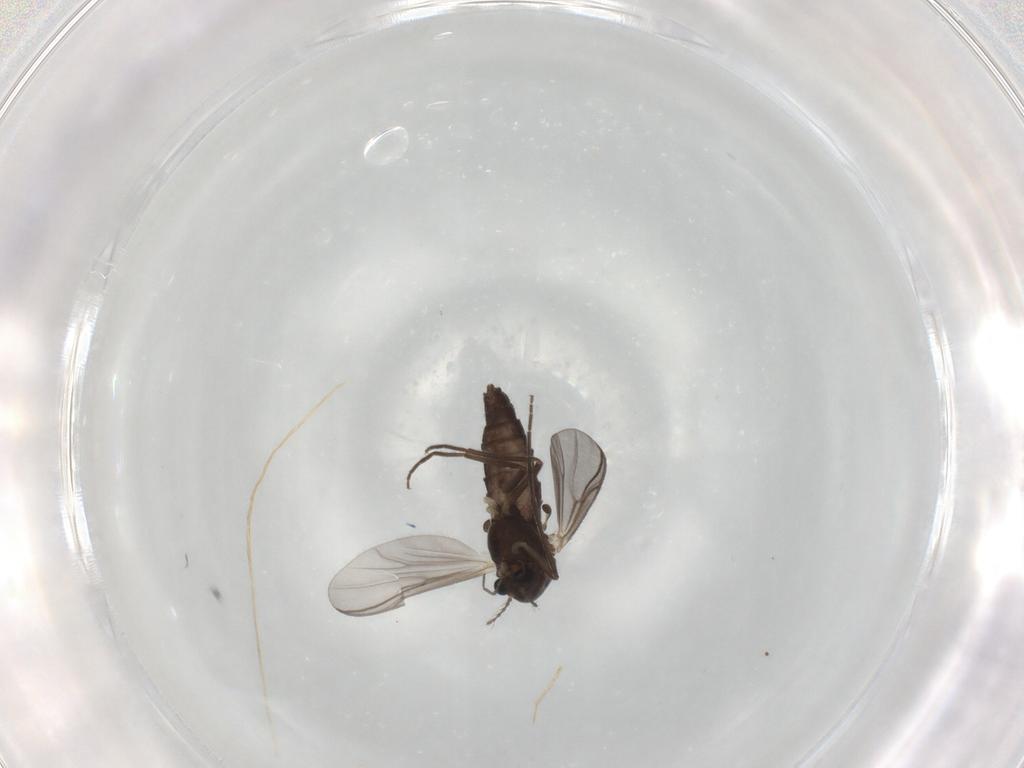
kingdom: Animalia
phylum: Arthropoda
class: Insecta
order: Diptera
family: Chironomidae
